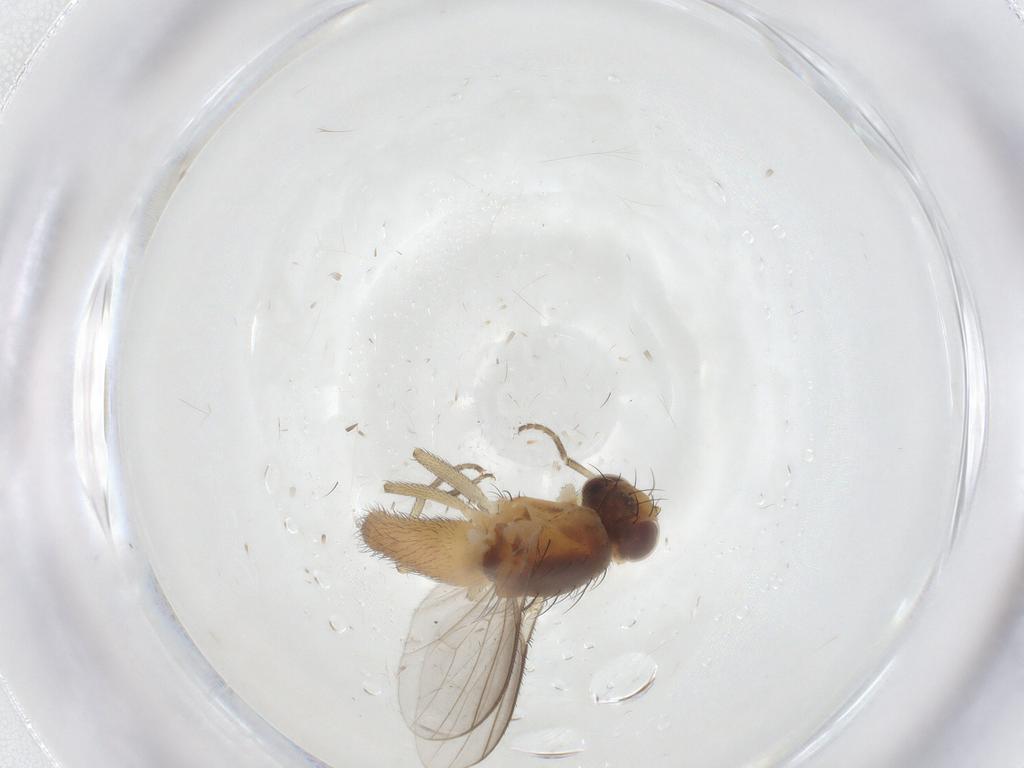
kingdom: Animalia
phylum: Arthropoda
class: Insecta
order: Diptera
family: Heleomyzidae
